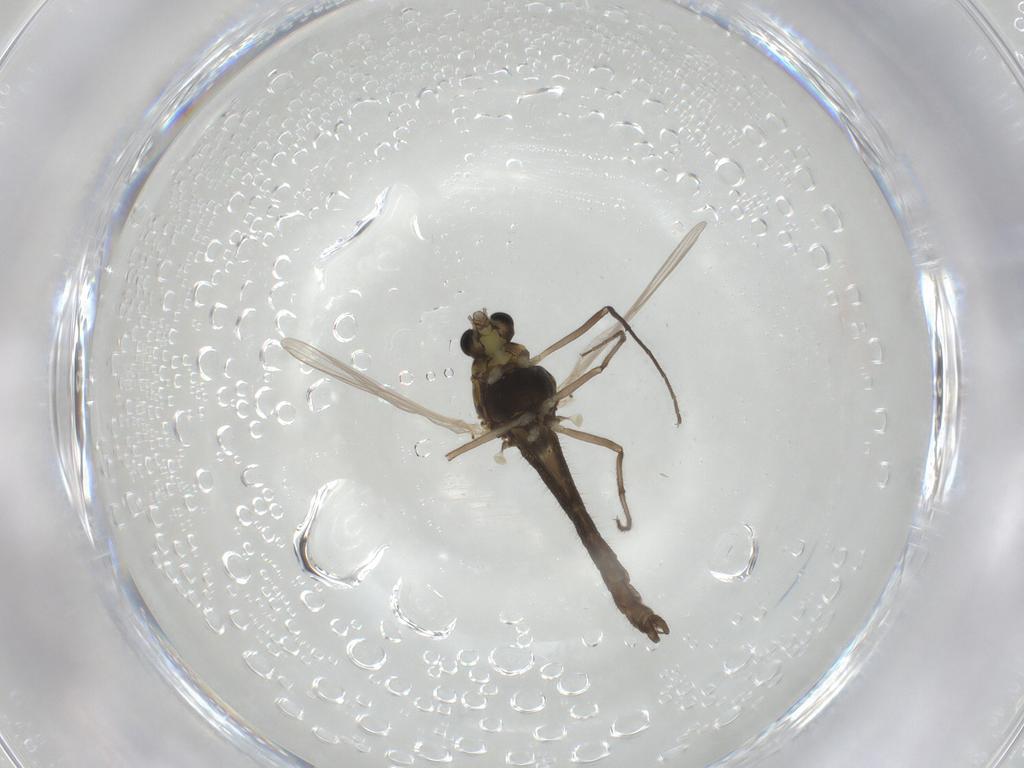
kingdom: Animalia
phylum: Arthropoda
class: Insecta
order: Diptera
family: Chironomidae
